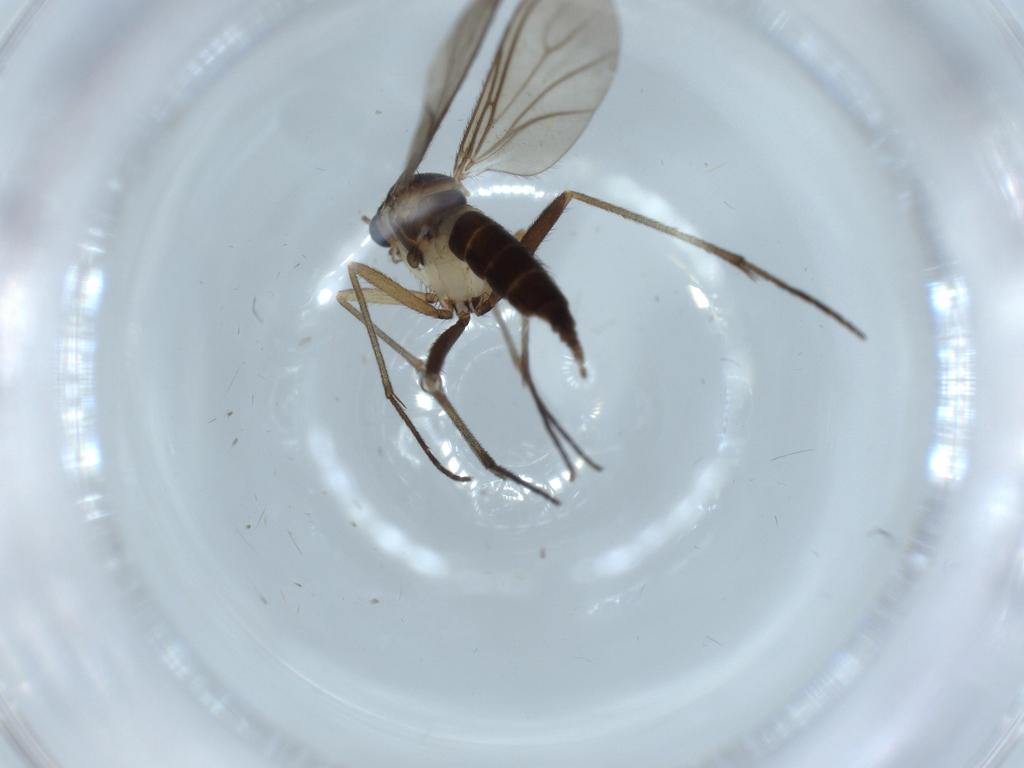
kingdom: Animalia
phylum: Arthropoda
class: Insecta
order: Diptera
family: Sciaridae
